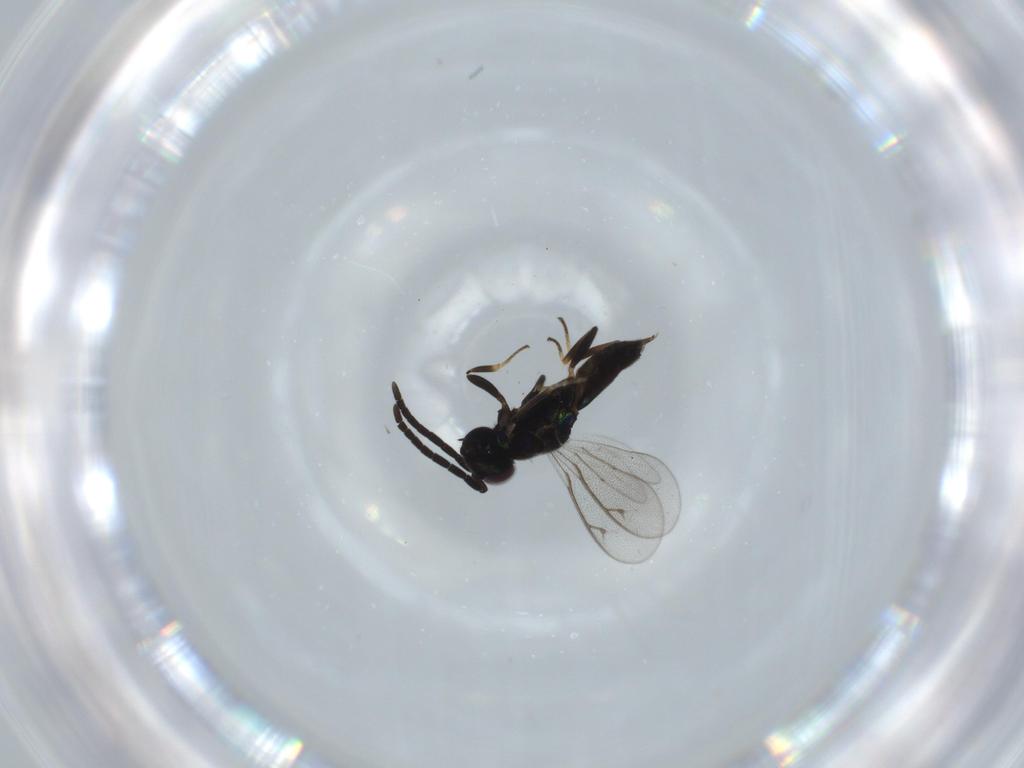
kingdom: Animalia
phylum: Arthropoda
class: Insecta
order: Hymenoptera
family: Eupelmidae
